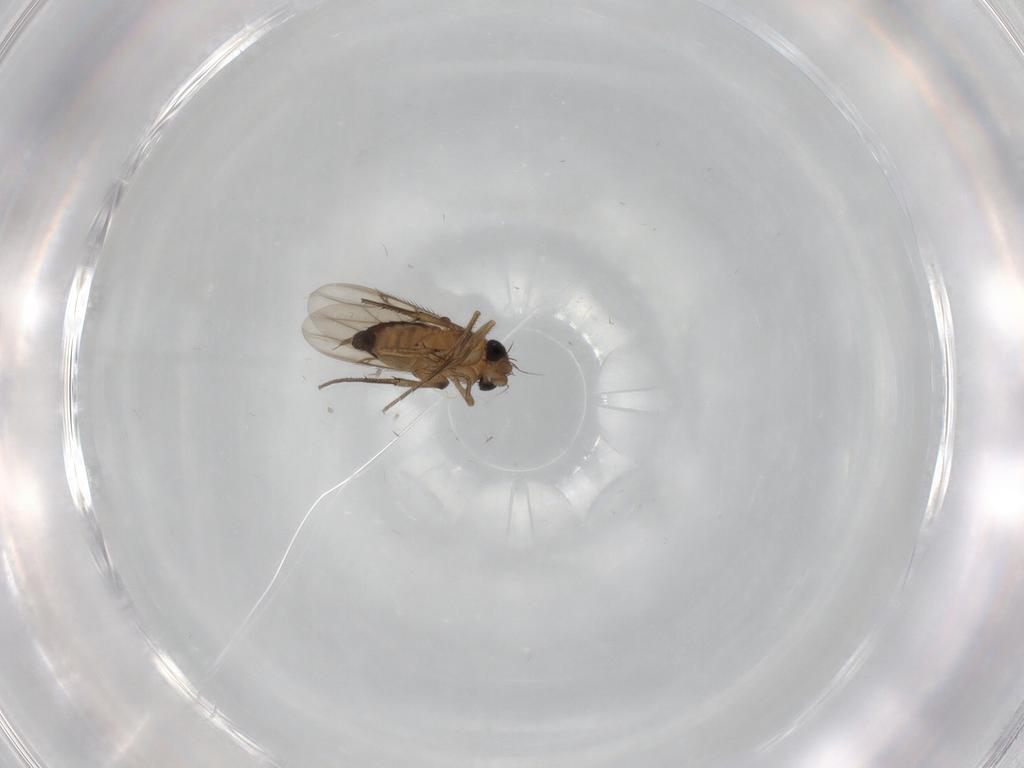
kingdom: Animalia
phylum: Arthropoda
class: Insecta
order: Diptera
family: Phoridae
